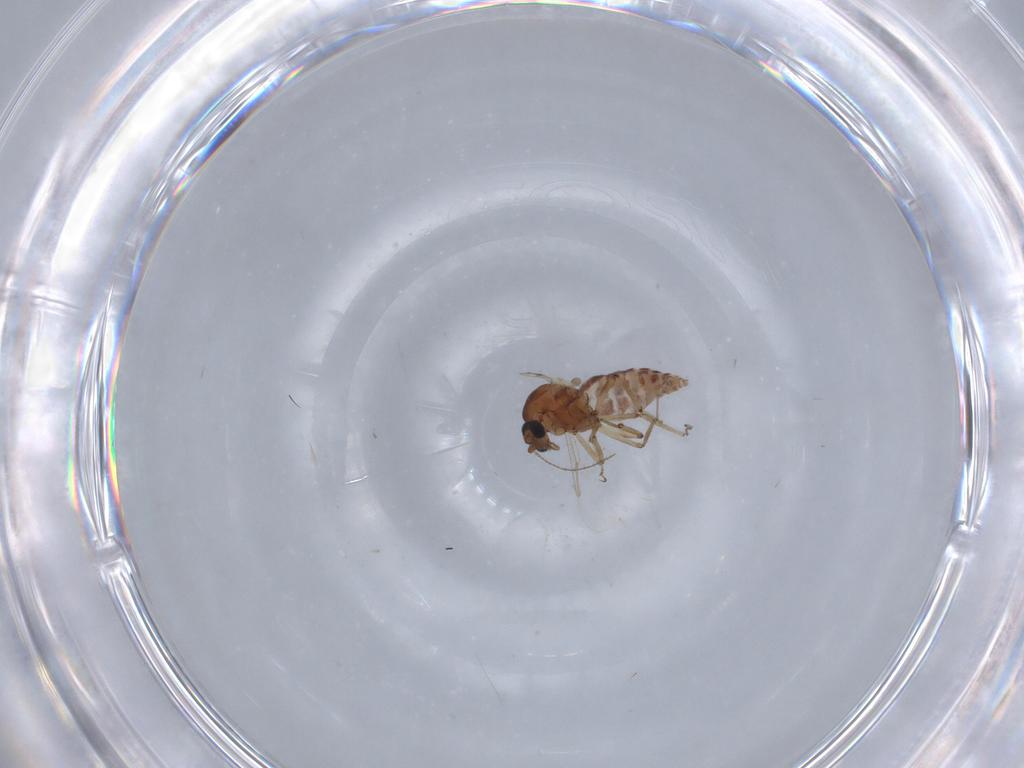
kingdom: Animalia
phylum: Arthropoda
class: Insecta
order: Diptera
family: Ceratopogonidae
